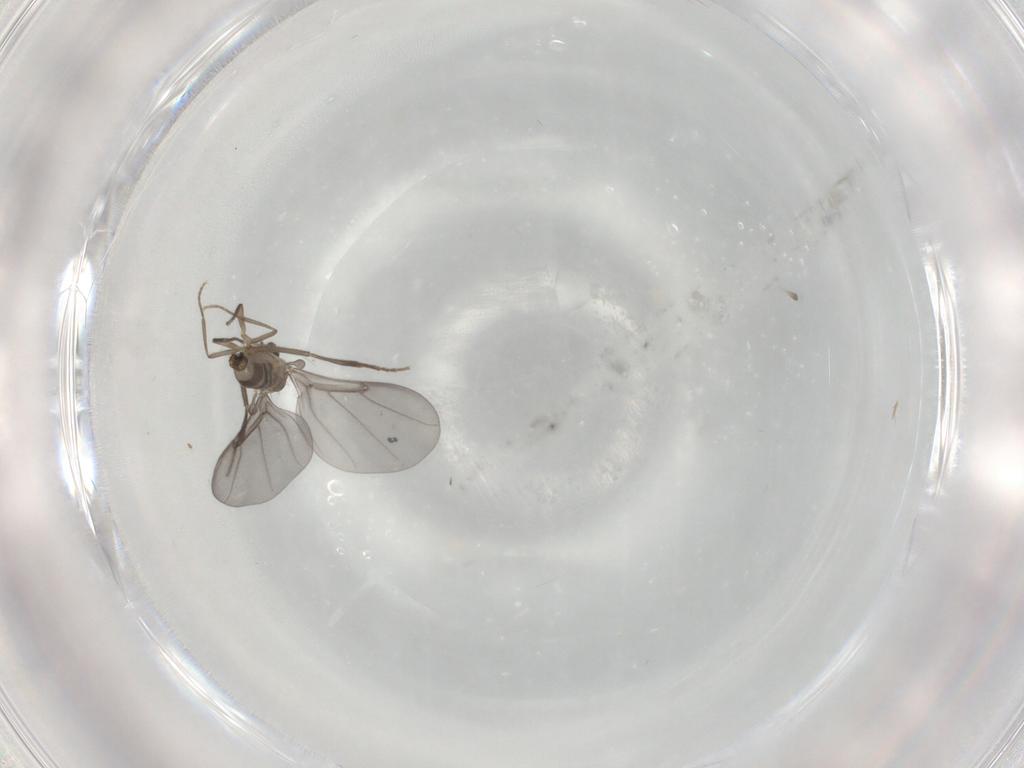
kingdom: Animalia
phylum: Arthropoda
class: Insecta
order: Diptera
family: Phoridae
